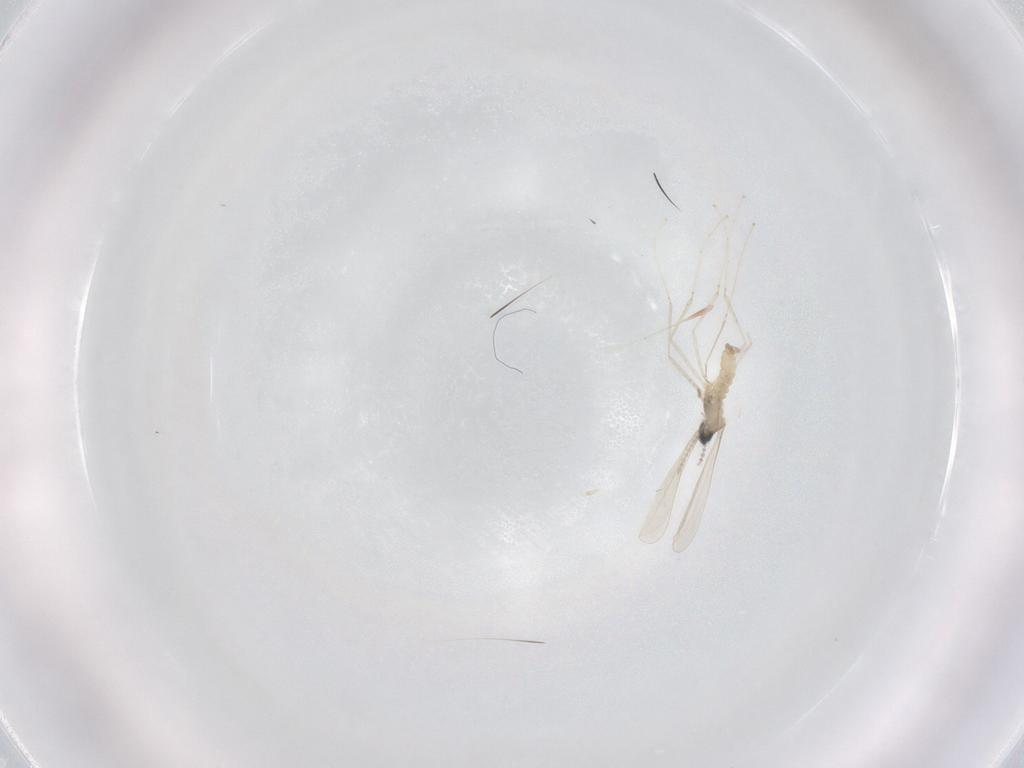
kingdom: Animalia
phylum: Arthropoda
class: Insecta
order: Diptera
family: Cecidomyiidae
